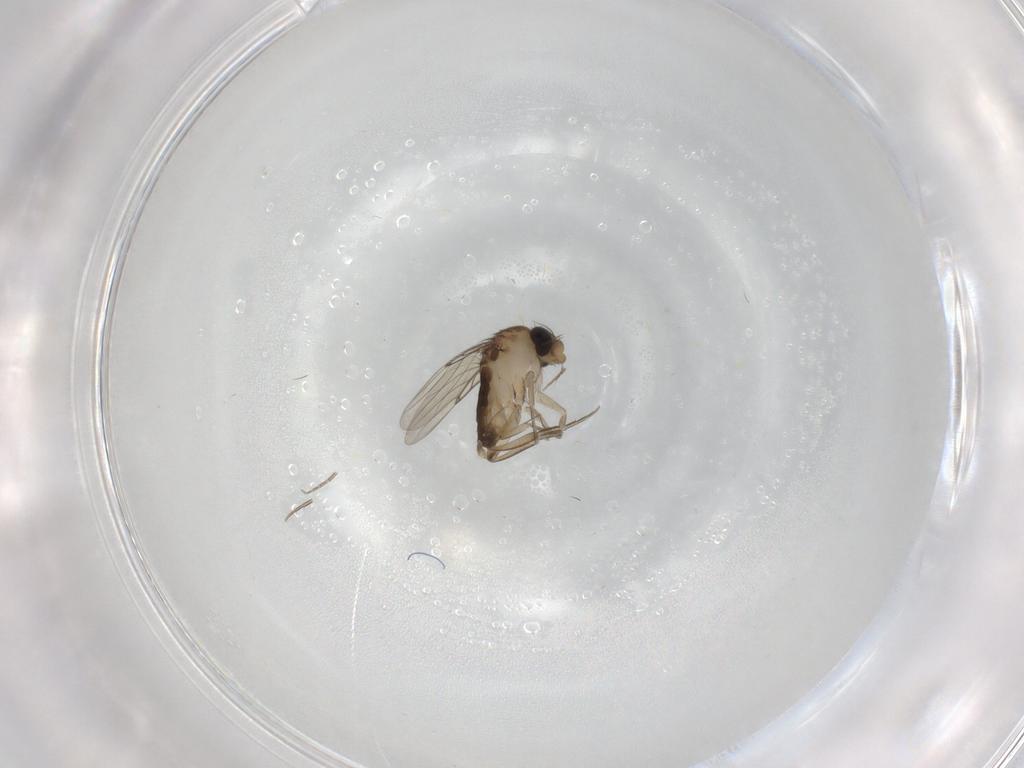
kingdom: Animalia
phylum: Arthropoda
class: Insecta
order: Diptera
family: Phoridae
